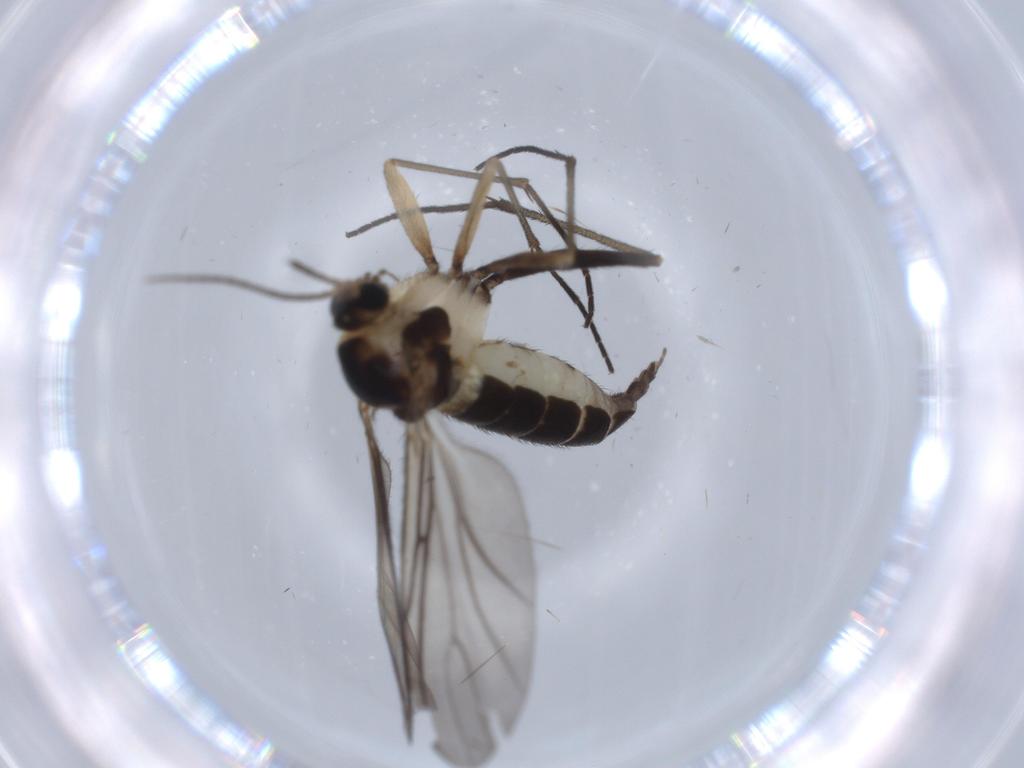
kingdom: Animalia
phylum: Arthropoda
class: Insecta
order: Diptera
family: Sciaridae
